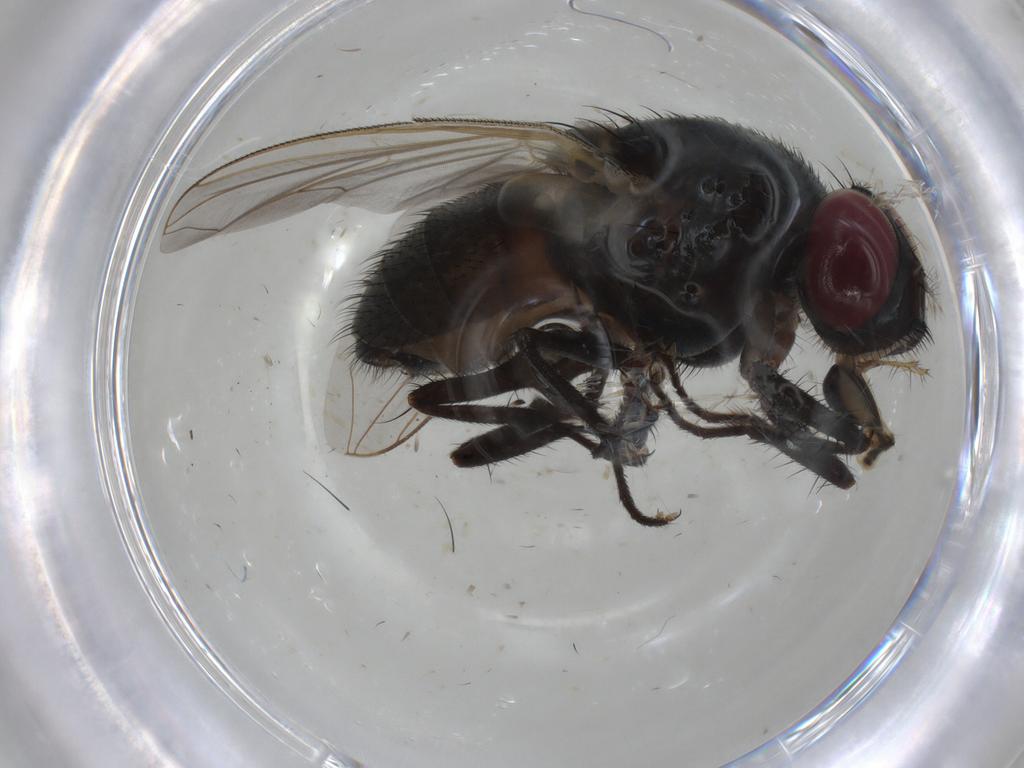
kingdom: Animalia
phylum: Arthropoda
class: Insecta
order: Diptera
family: Muscidae
